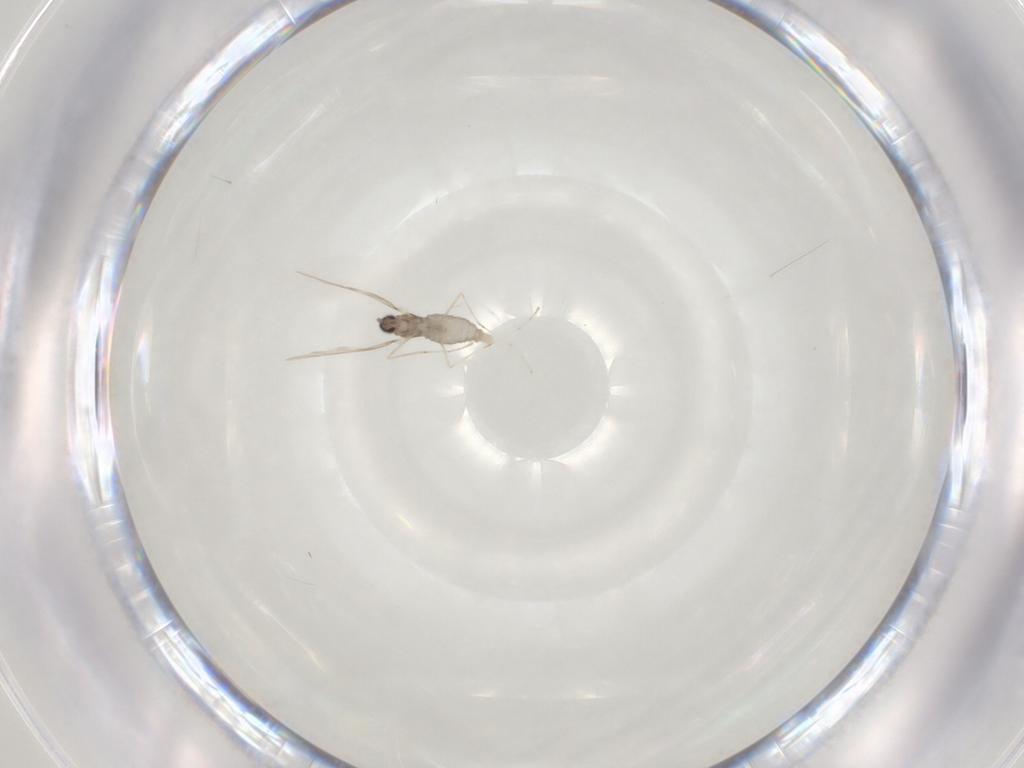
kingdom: Animalia
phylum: Arthropoda
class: Insecta
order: Diptera
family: Cecidomyiidae
